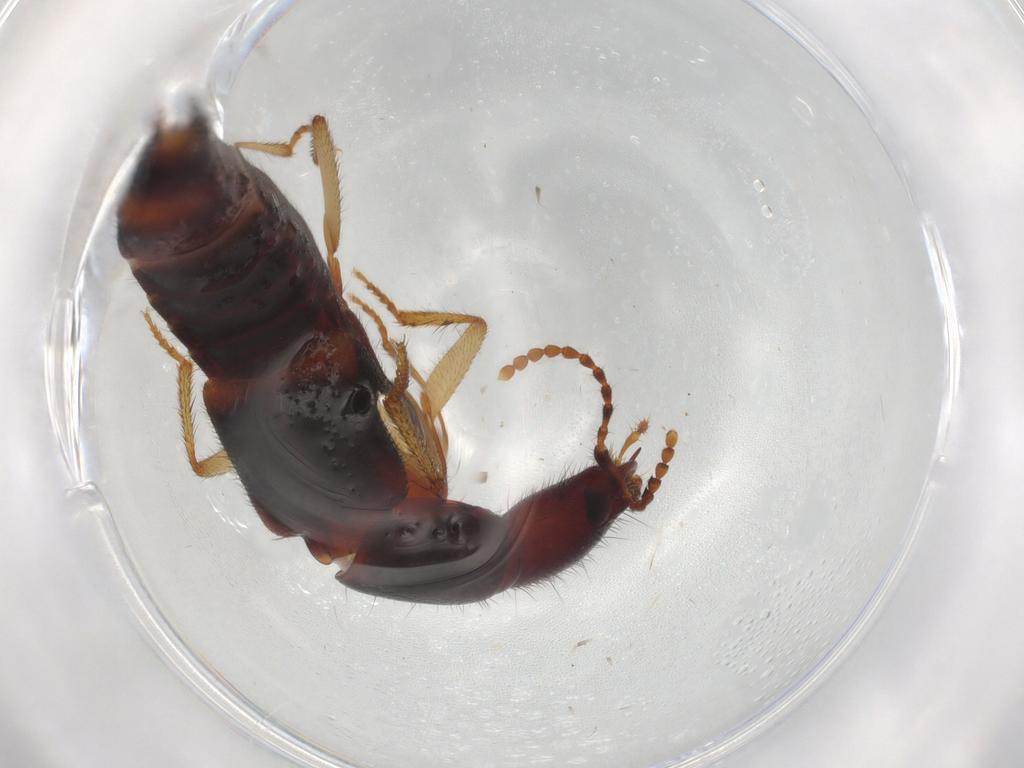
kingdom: Animalia
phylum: Arthropoda
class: Insecta
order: Coleoptera
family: Staphylinidae
